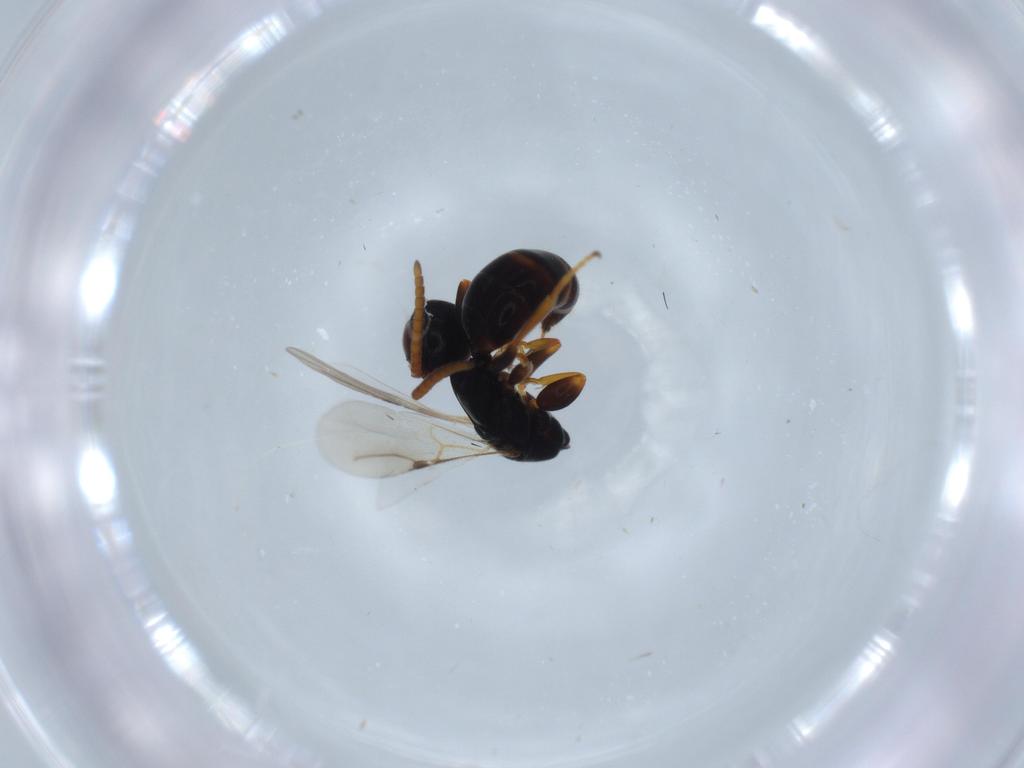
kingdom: Animalia
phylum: Arthropoda
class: Insecta
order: Hymenoptera
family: Bethylidae
